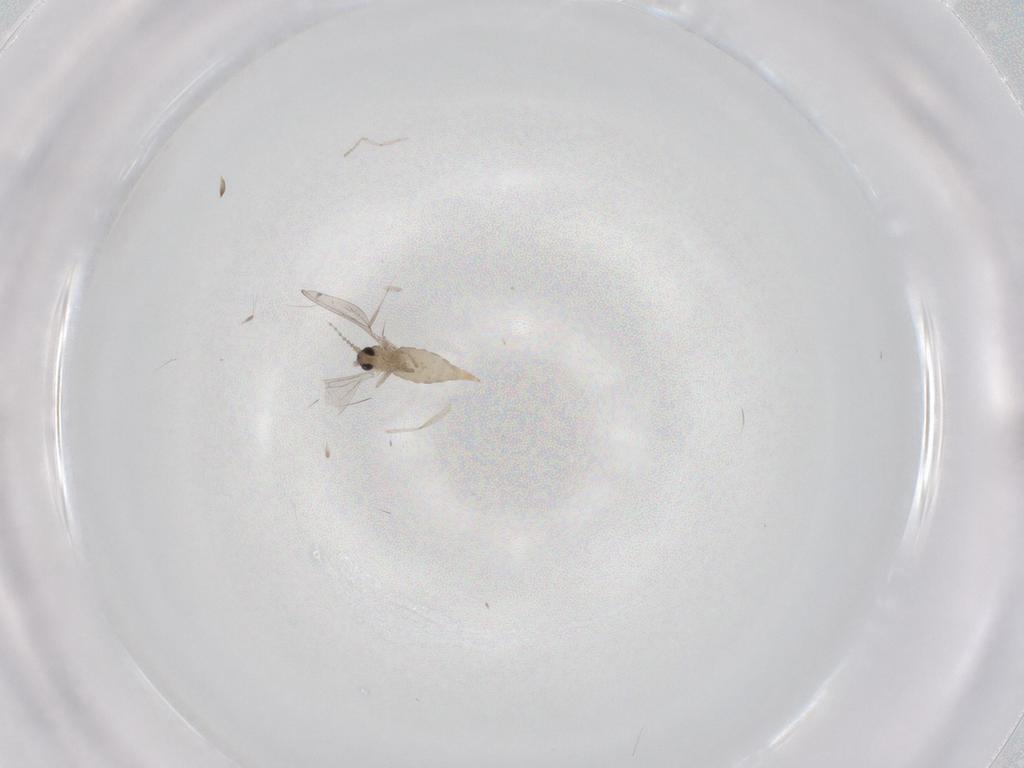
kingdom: Animalia
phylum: Arthropoda
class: Insecta
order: Diptera
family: Cecidomyiidae
